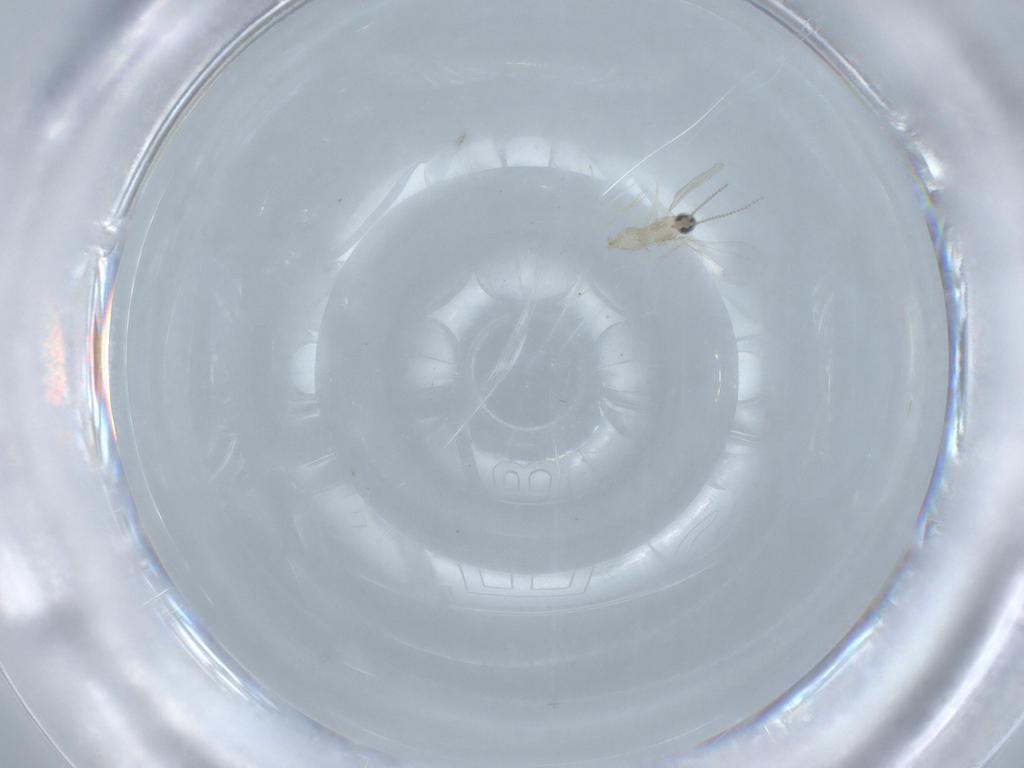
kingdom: Animalia
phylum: Arthropoda
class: Insecta
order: Diptera
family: Cecidomyiidae
